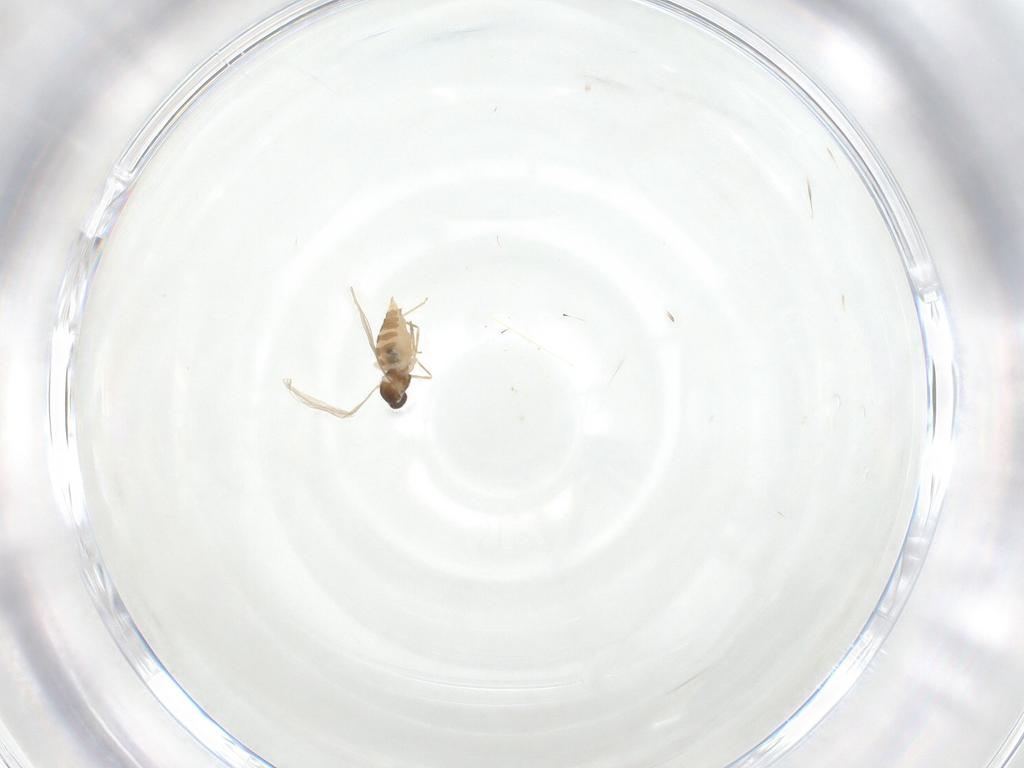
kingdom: Animalia
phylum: Arthropoda
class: Insecta
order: Diptera
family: Cecidomyiidae
